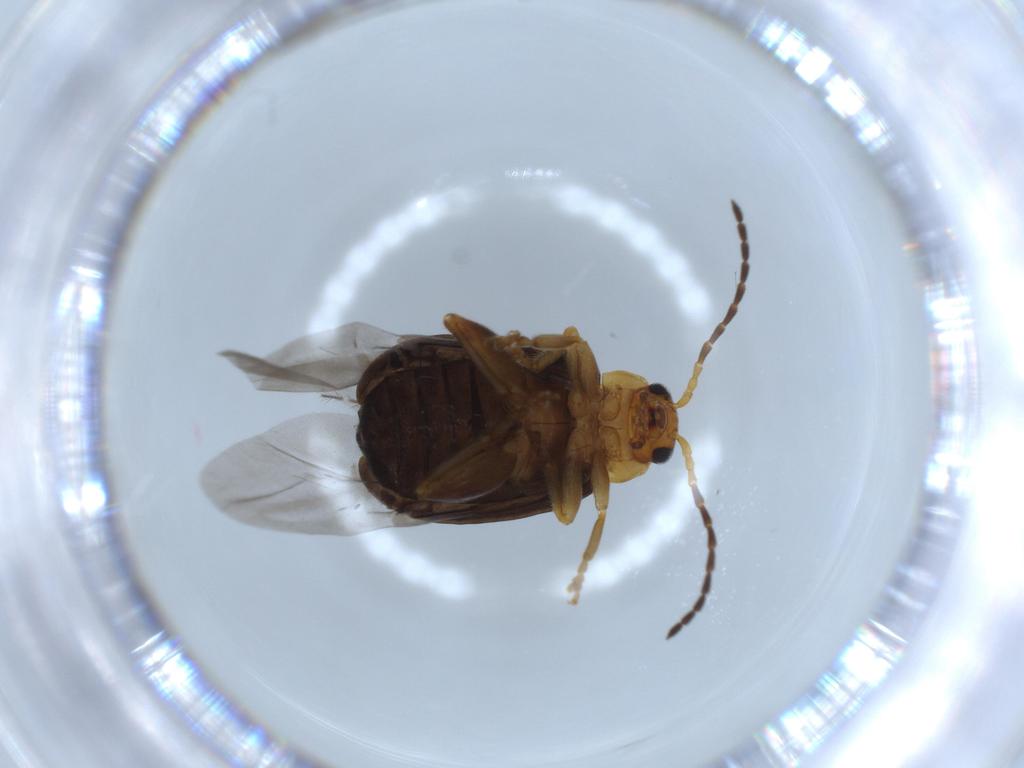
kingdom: Animalia
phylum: Arthropoda
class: Insecta
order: Coleoptera
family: Chrysomelidae
